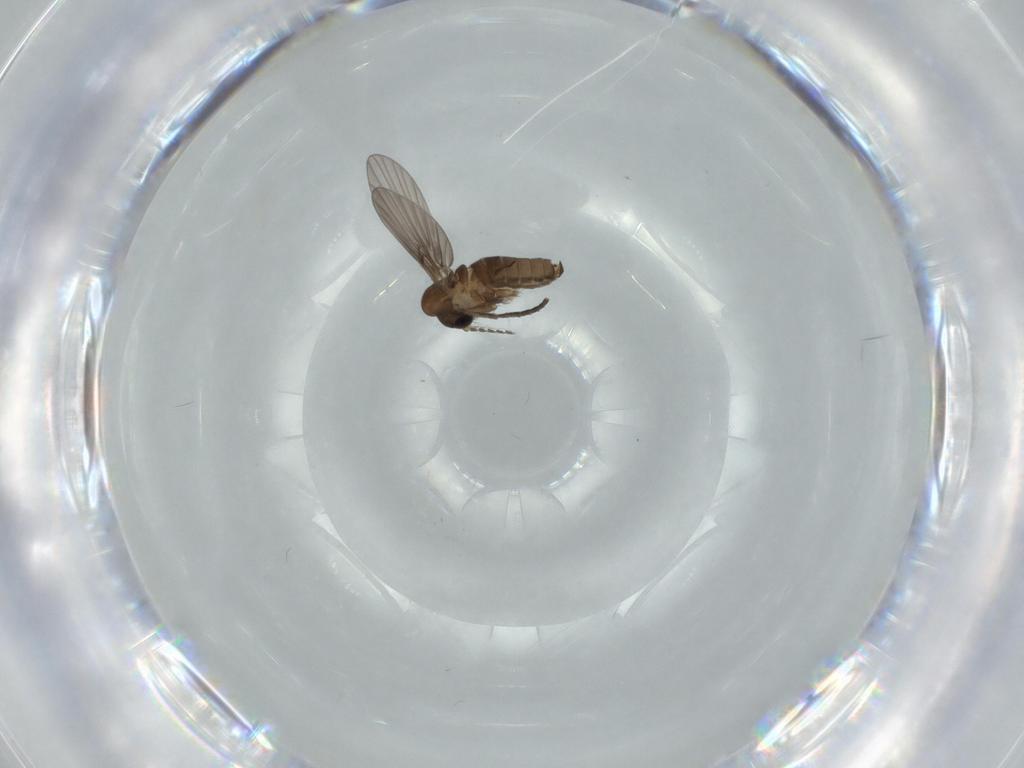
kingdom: Animalia
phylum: Arthropoda
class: Insecta
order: Diptera
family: Psychodidae
